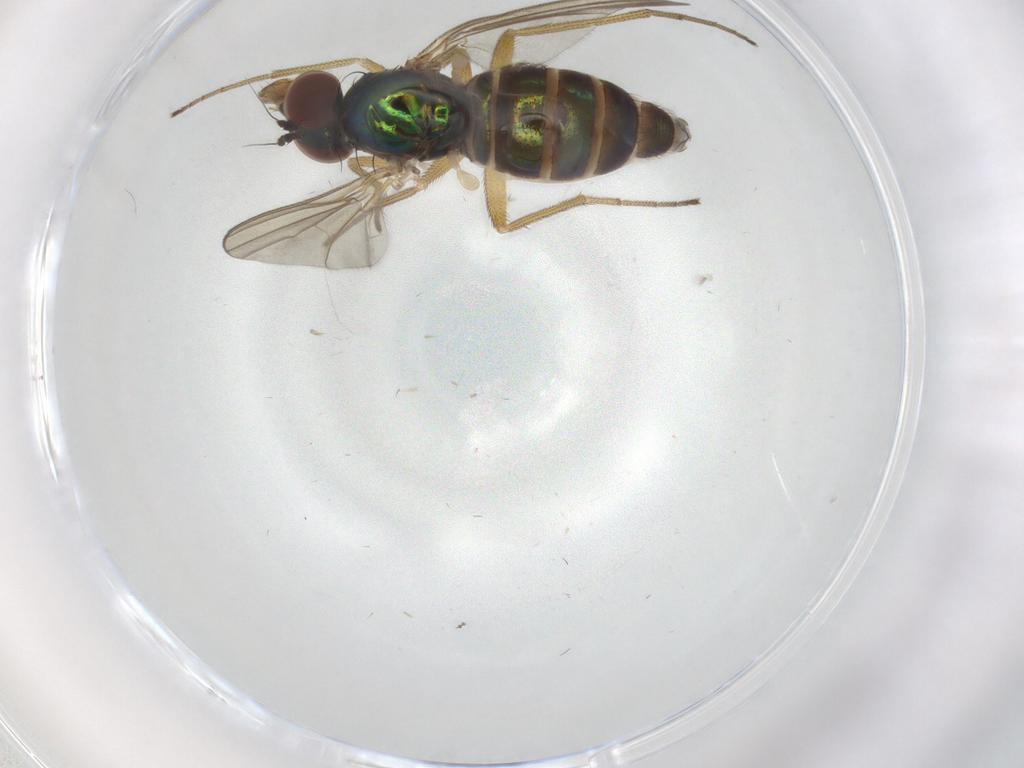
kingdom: Animalia
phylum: Arthropoda
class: Insecta
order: Diptera
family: Dolichopodidae
